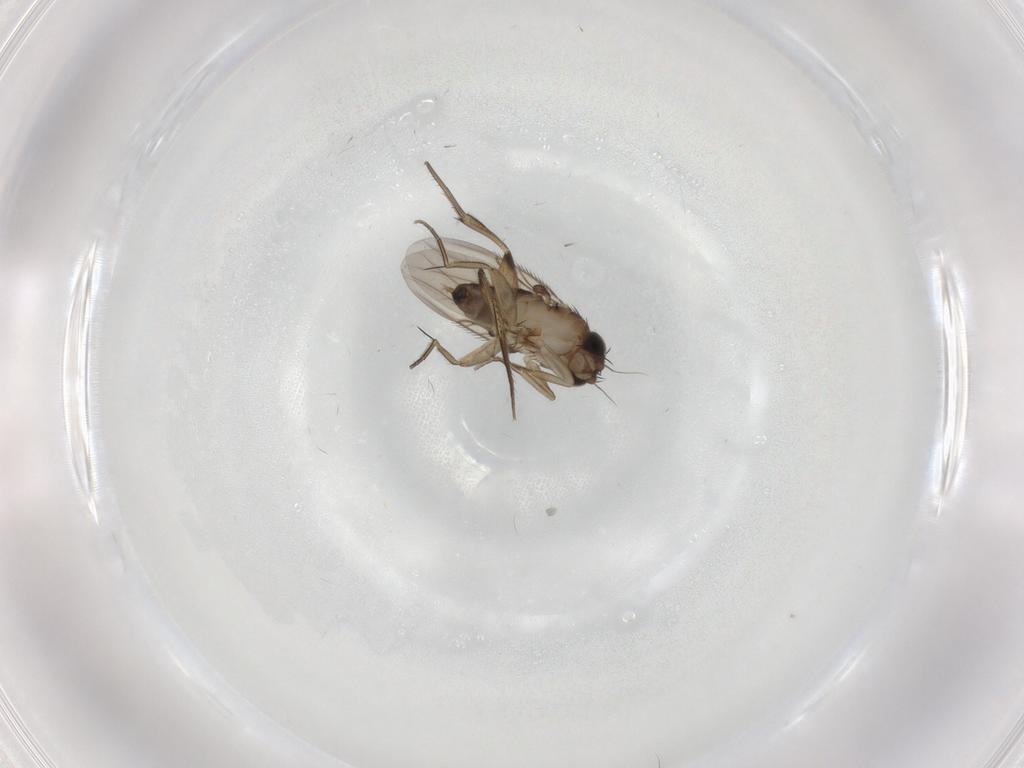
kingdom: Animalia
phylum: Arthropoda
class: Insecta
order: Diptera
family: Phoridae
